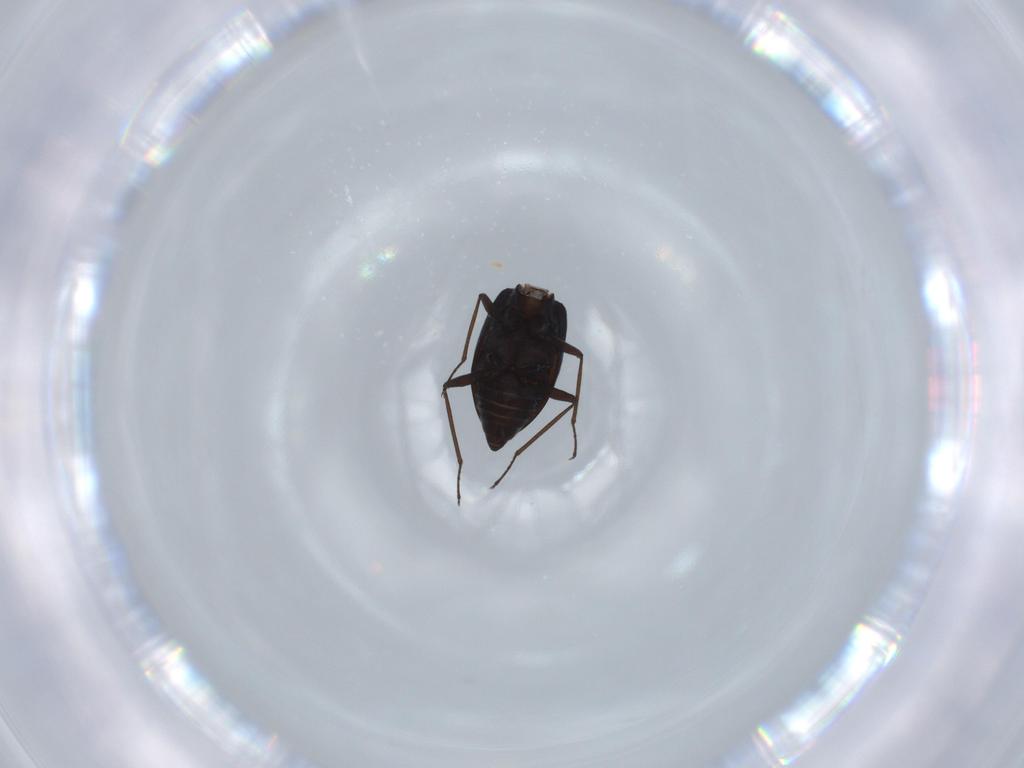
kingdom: Animalia
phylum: Arthropoda
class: Insecta
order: Coleoptera
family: Hydraenidae
